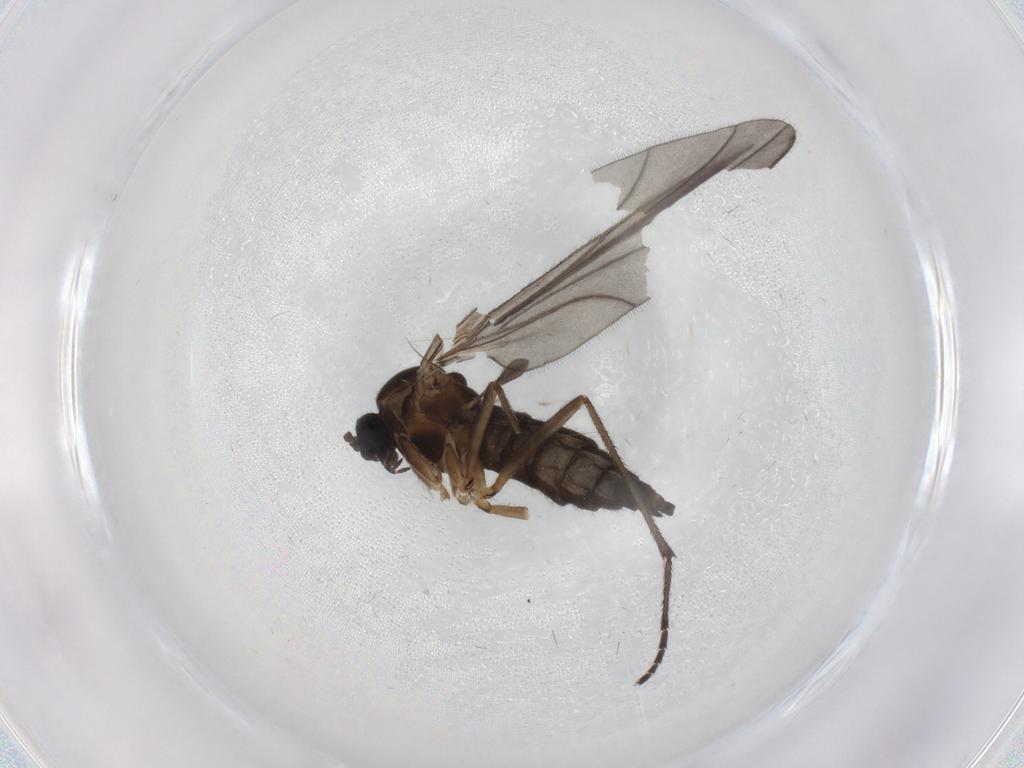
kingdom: Animalia
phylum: Arthropoda
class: Insecta
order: Diptera
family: Sciaridae
